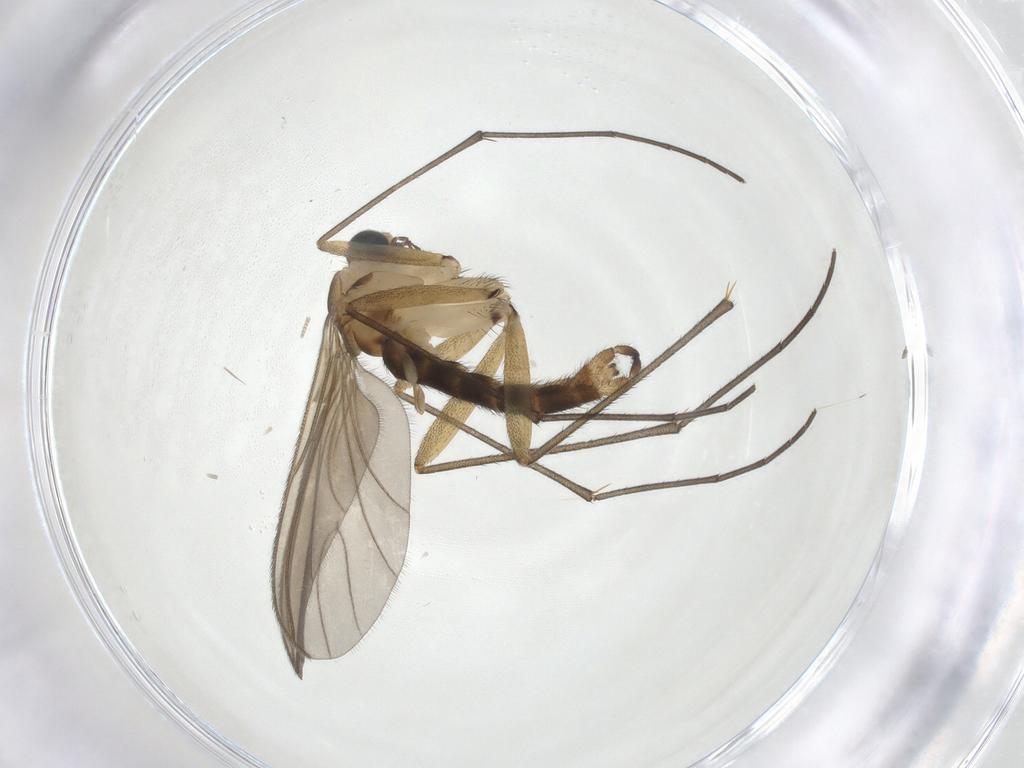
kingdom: Animalia
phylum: Arthropoda
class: Insecta
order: Diptera
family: Sciaridae
